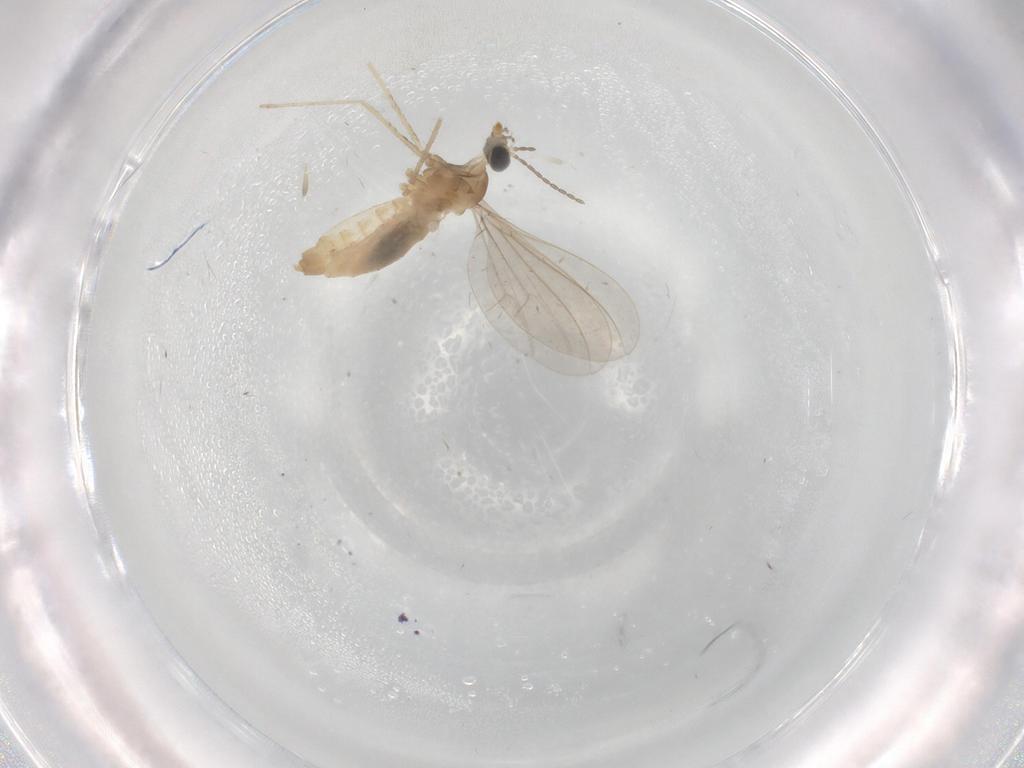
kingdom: Animalia
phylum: Arthropoda
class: Insecta
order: Diptera
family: Cecidomyiidae
